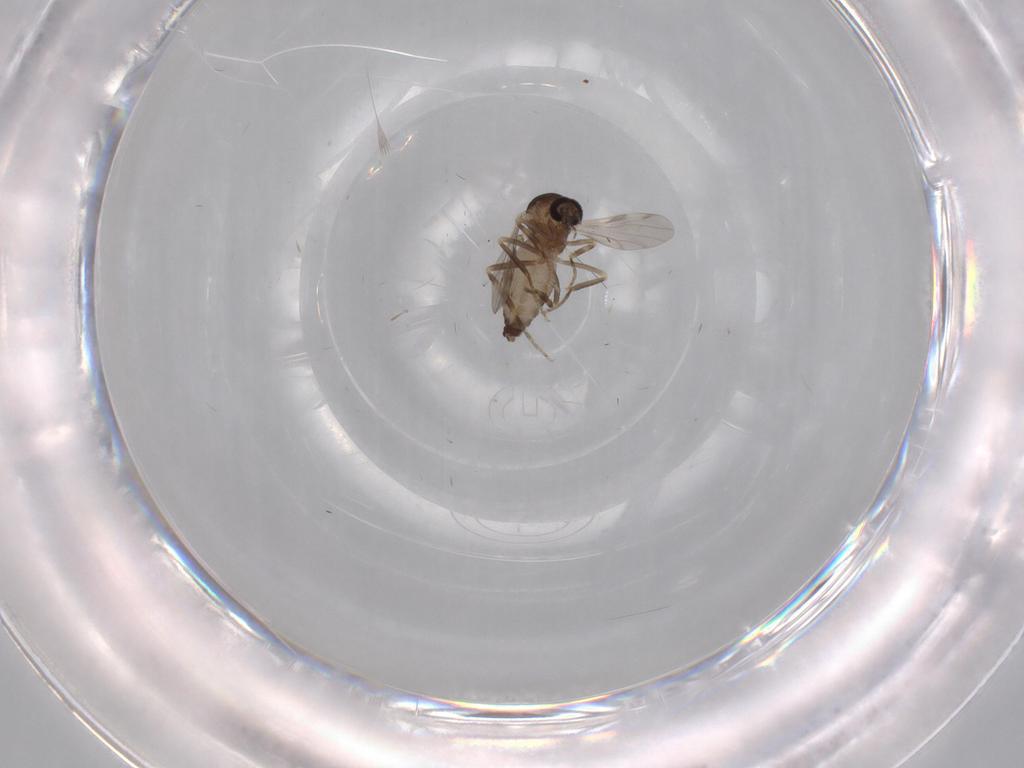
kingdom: Animalia
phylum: Arthropoda
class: Insecta
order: Diptera
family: Ceratopogonidae
